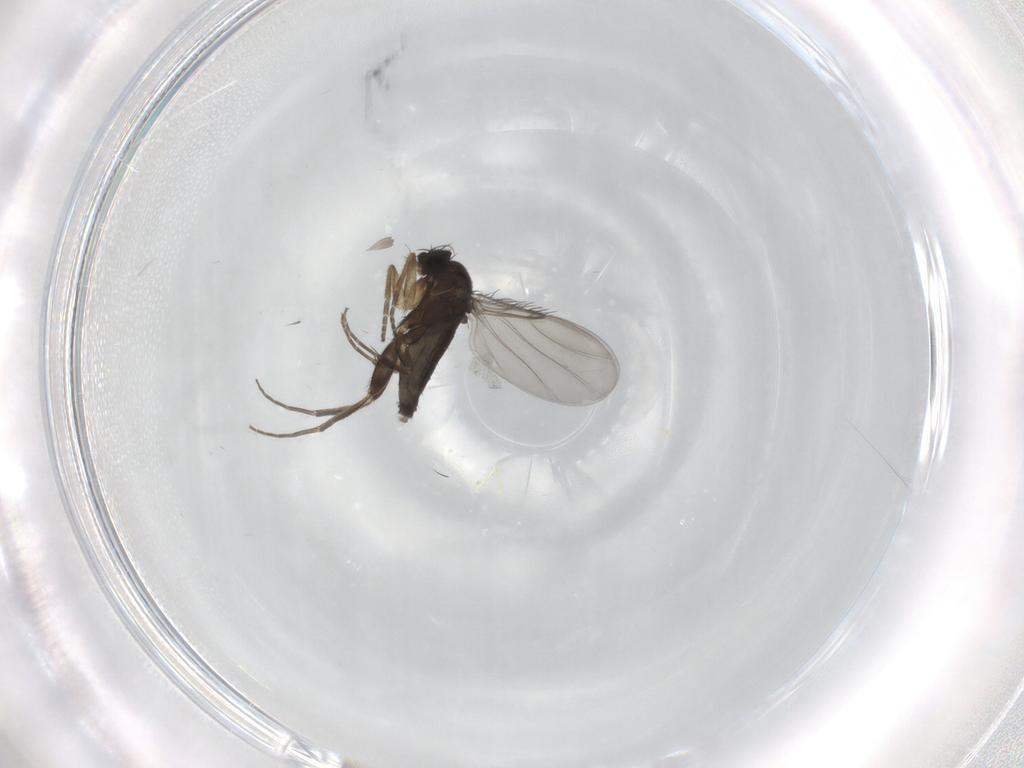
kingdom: Animalia
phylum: Arthropoda
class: Insecta
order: Diptera
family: Phoridae
